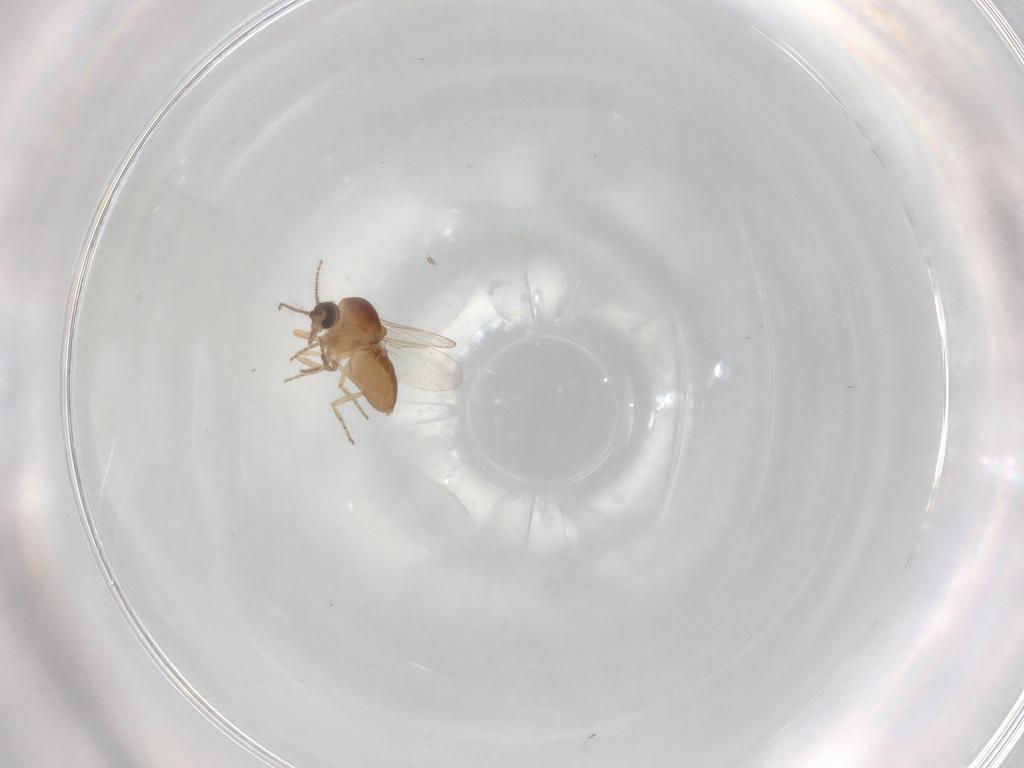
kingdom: Animalia
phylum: Arthropoda
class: Insecta
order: Diptera
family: Ceratopogonidae
